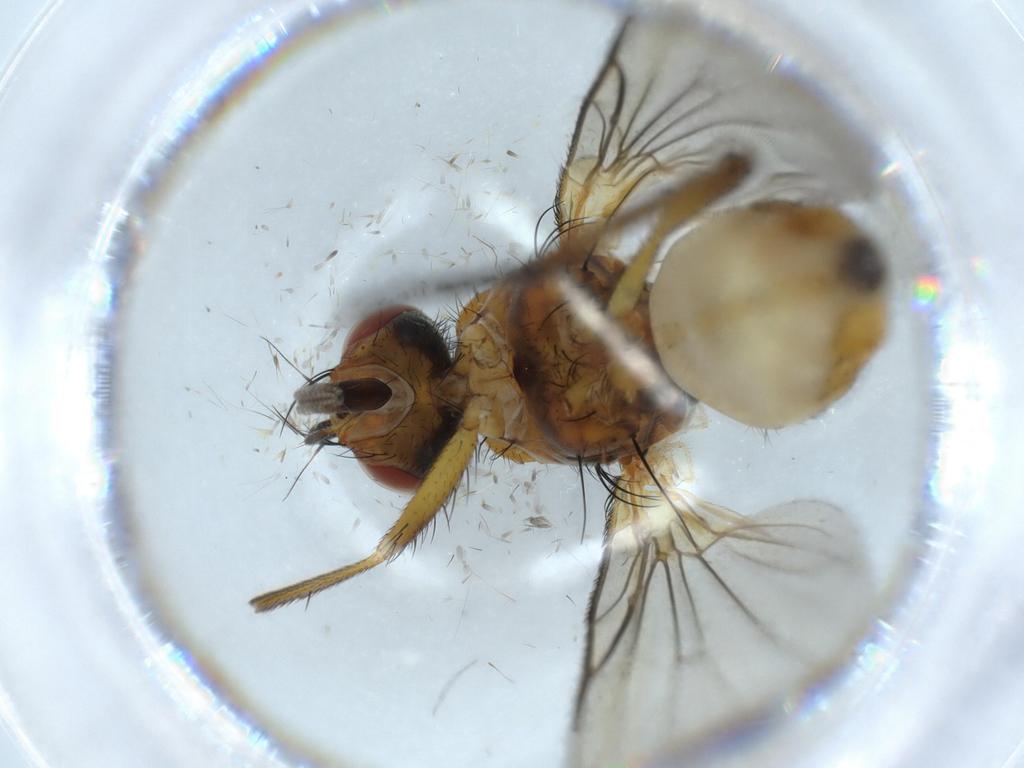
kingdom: Animalia
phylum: Arthropoda
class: Insecta
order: Diptera
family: Anthomyiidae
